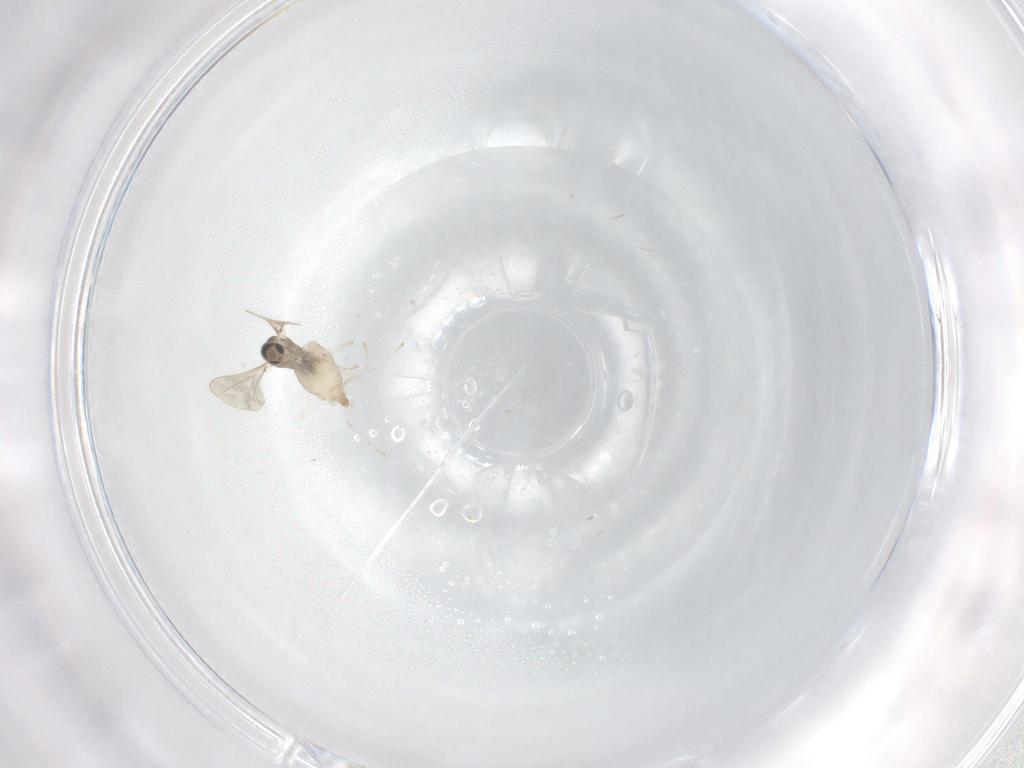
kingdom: Animalia
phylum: Arthropoda
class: Insecta
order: Diptera
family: Cecidomyiidae
